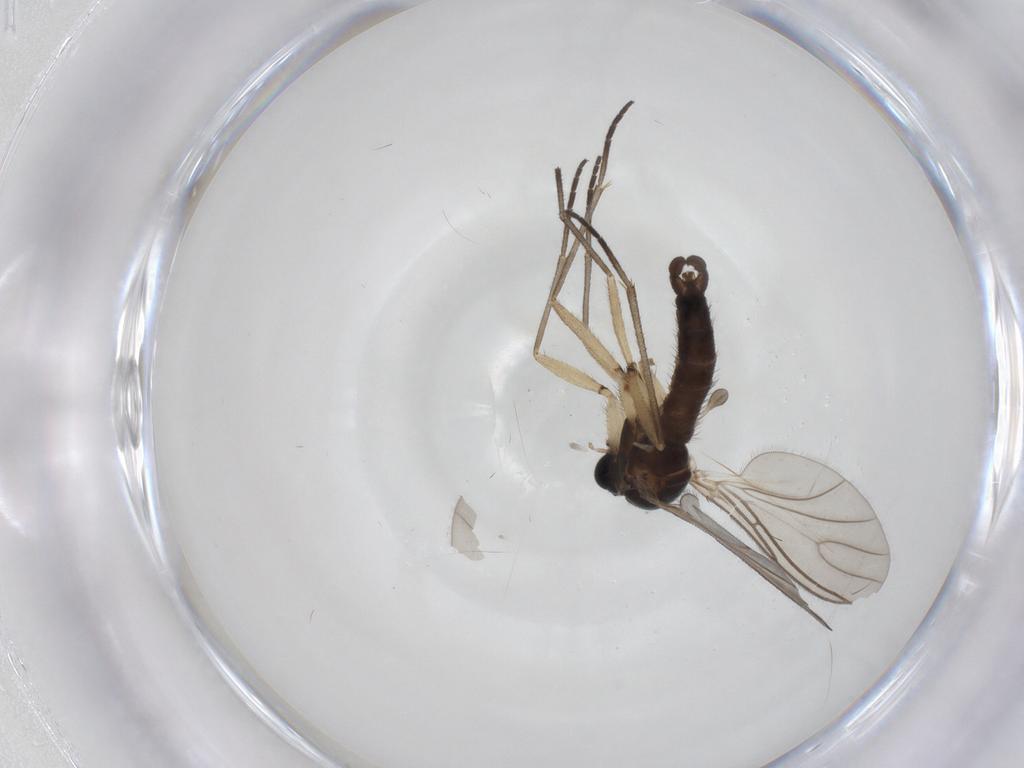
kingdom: Animalia
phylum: Arthropoda
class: Insecta
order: Diptera
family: Sciaridae
